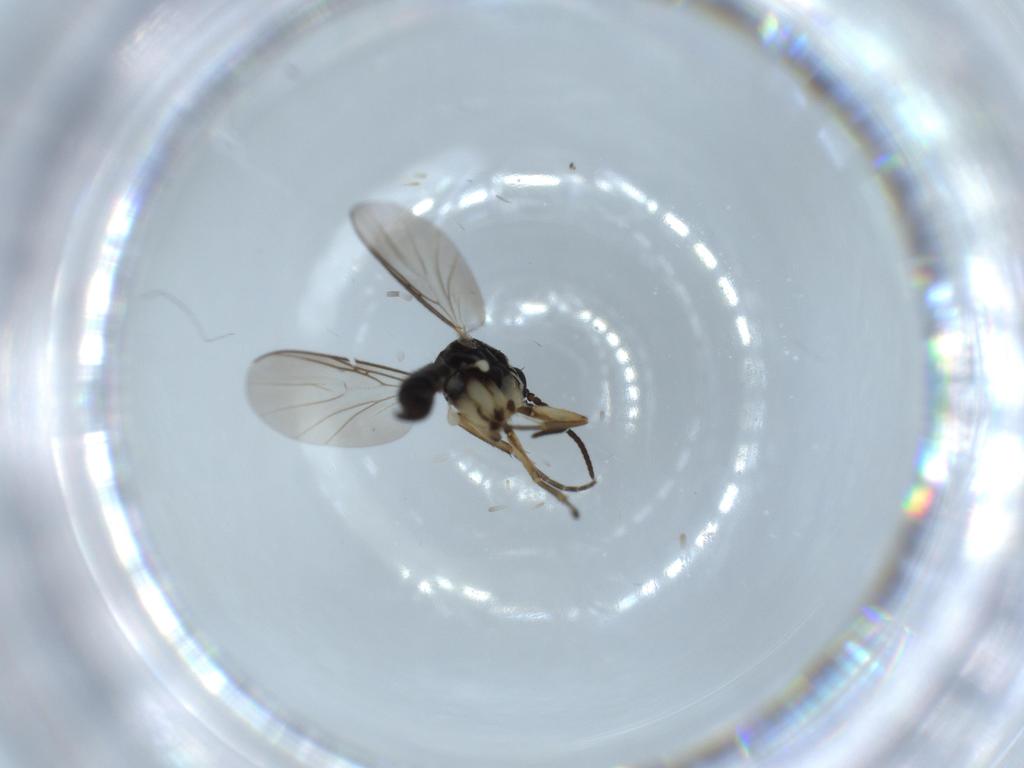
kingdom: Animalia
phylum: Arthropoda
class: Insecta
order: Diptera
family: Mycetophilidae
